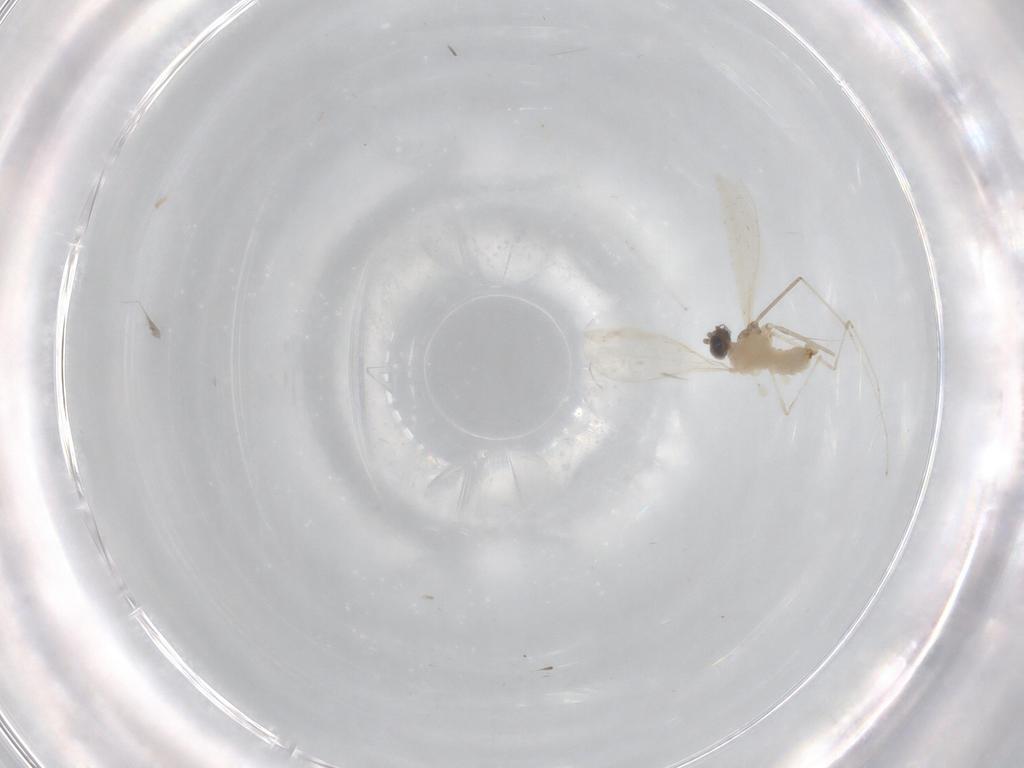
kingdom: Animalia
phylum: Arthropoda
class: Insecta
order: Diptera
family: Cecidomyiidae
